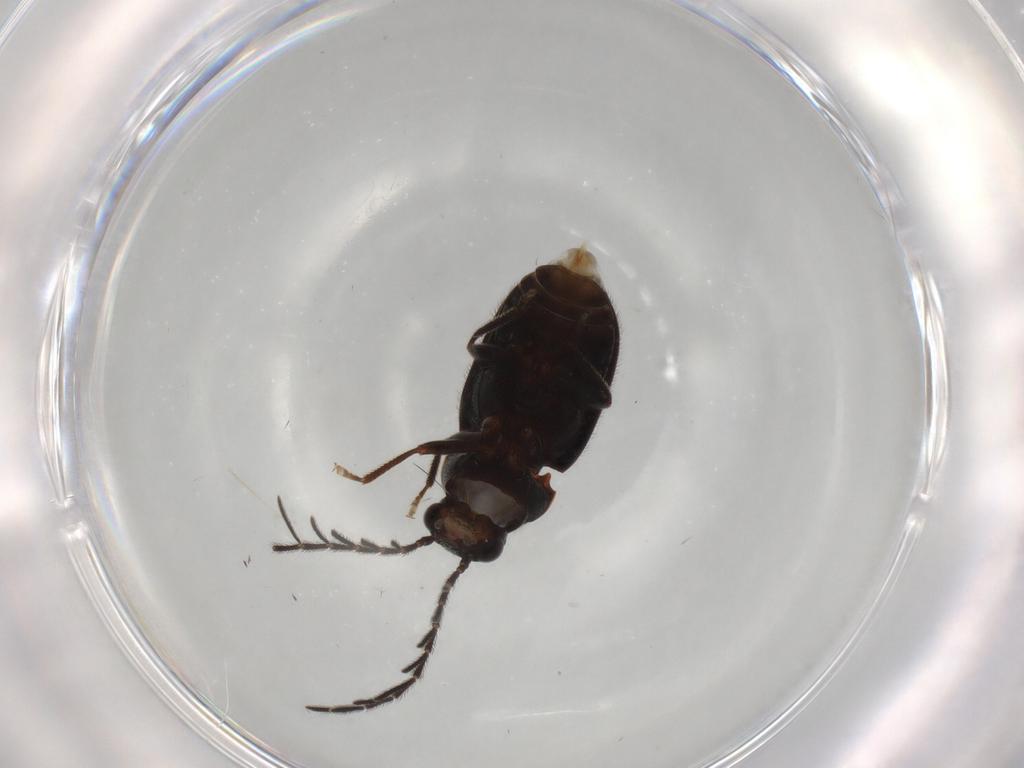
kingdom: Animalia
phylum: Arthropoda
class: Insecta
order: Coleoptera
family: Ptilodactylidae
